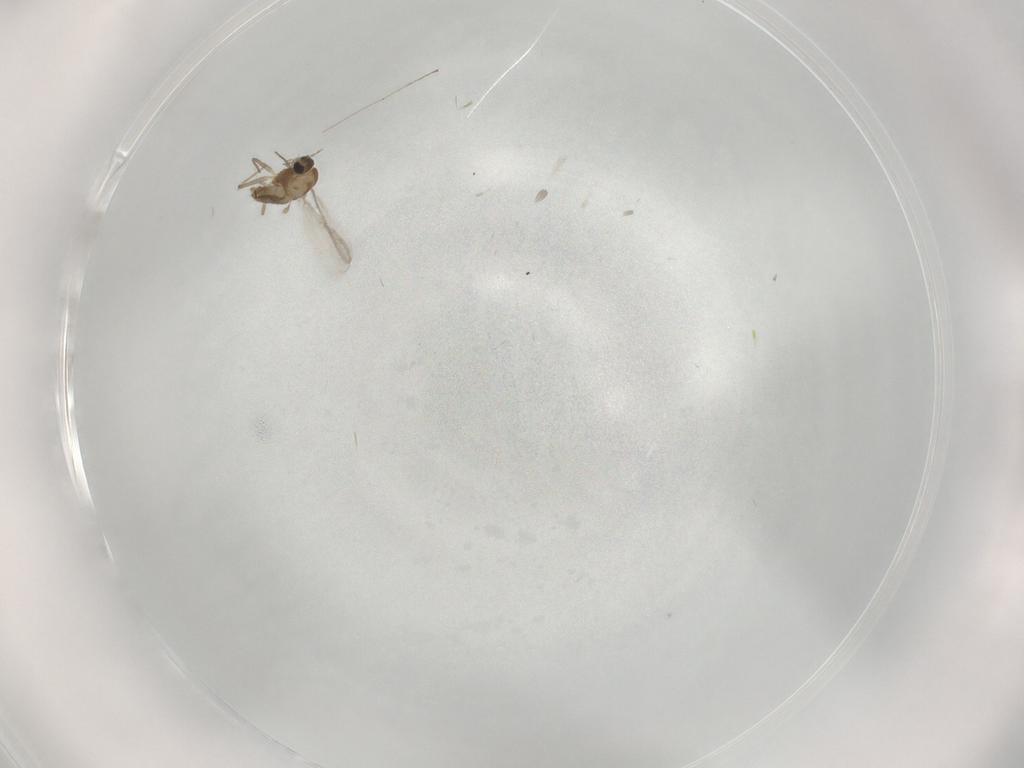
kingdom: Animalia
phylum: Arthropoda
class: Insecta
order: Diptera
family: Chironomidae
